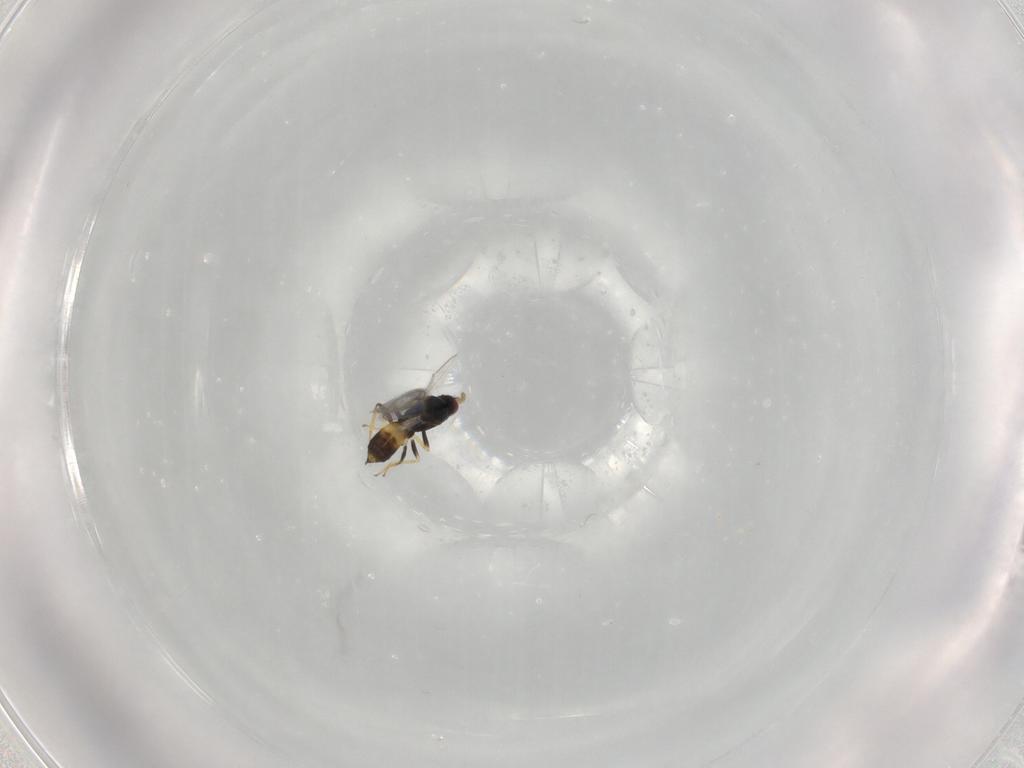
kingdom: Animalia
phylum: Arthropoda
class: Insecta
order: Hymenoptera
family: Eulophidae
